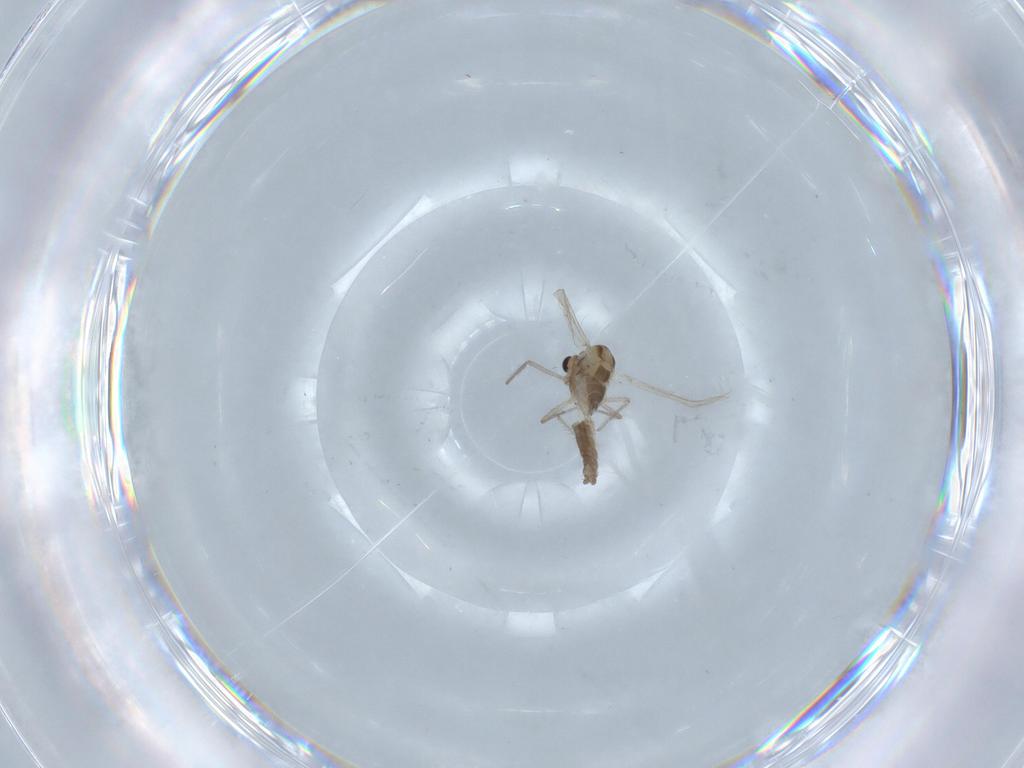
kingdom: Animalia
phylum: Arthropoda
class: Insecta
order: Diptera
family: Chironomidae
